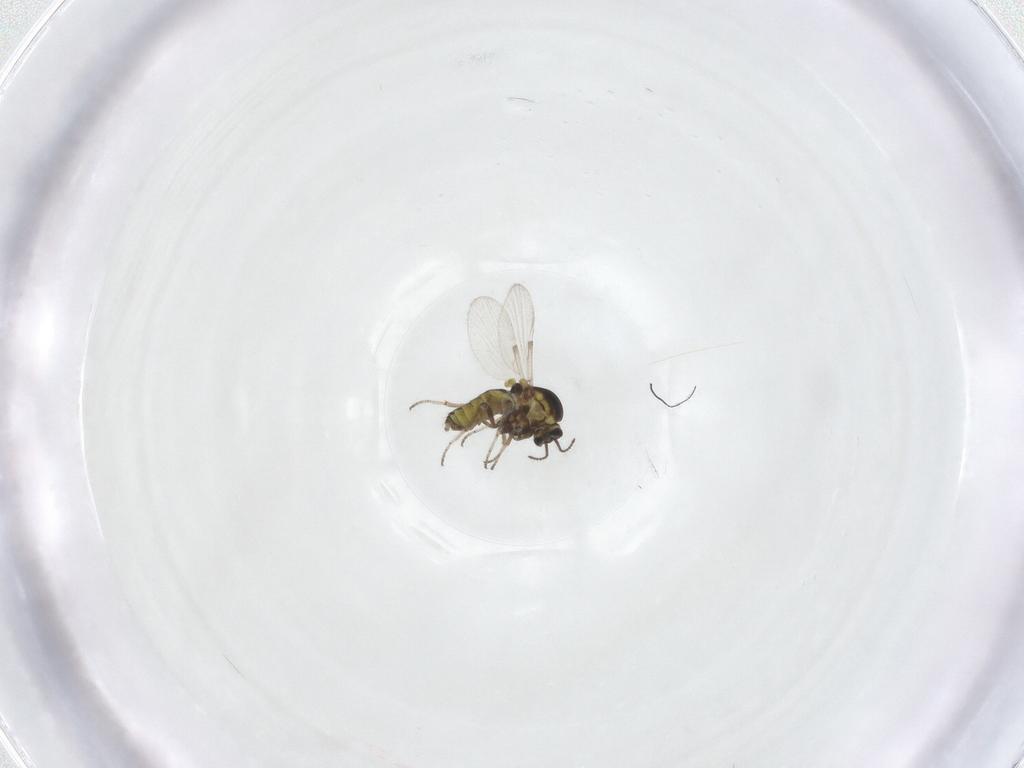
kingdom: Animalia
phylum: Arthropoda
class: Insecta
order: Diptera
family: Ceratopogonidae
